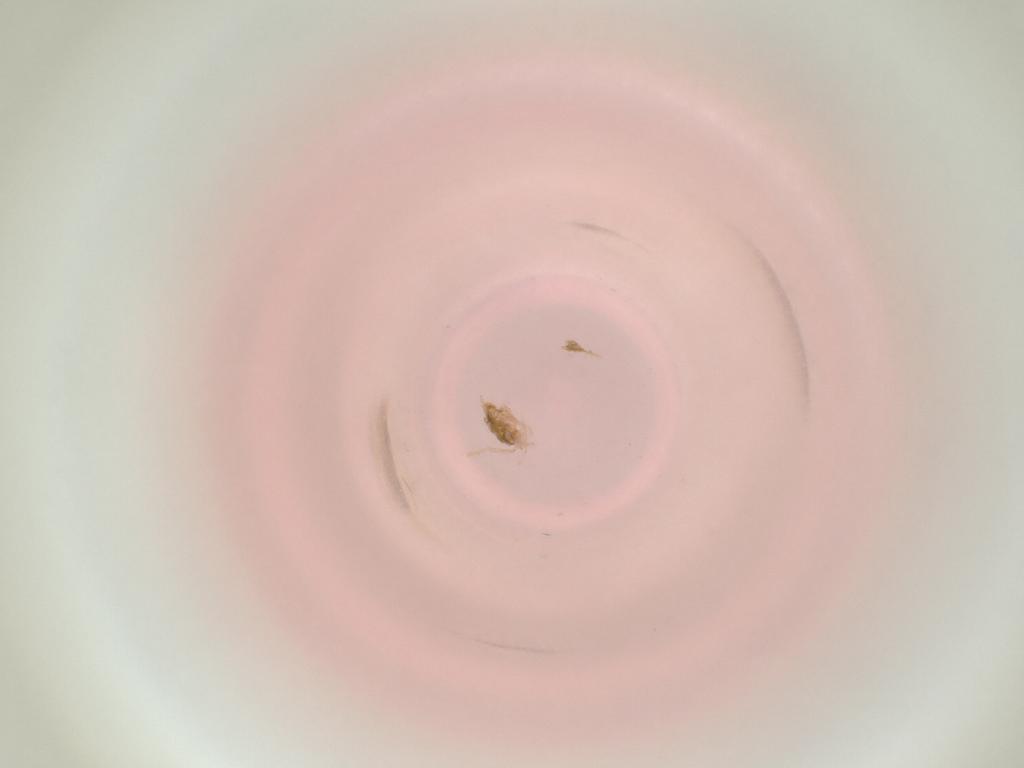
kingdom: Animalia
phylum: Arthropoda
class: Insecta
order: Diptera
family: Cecidomyiidae
